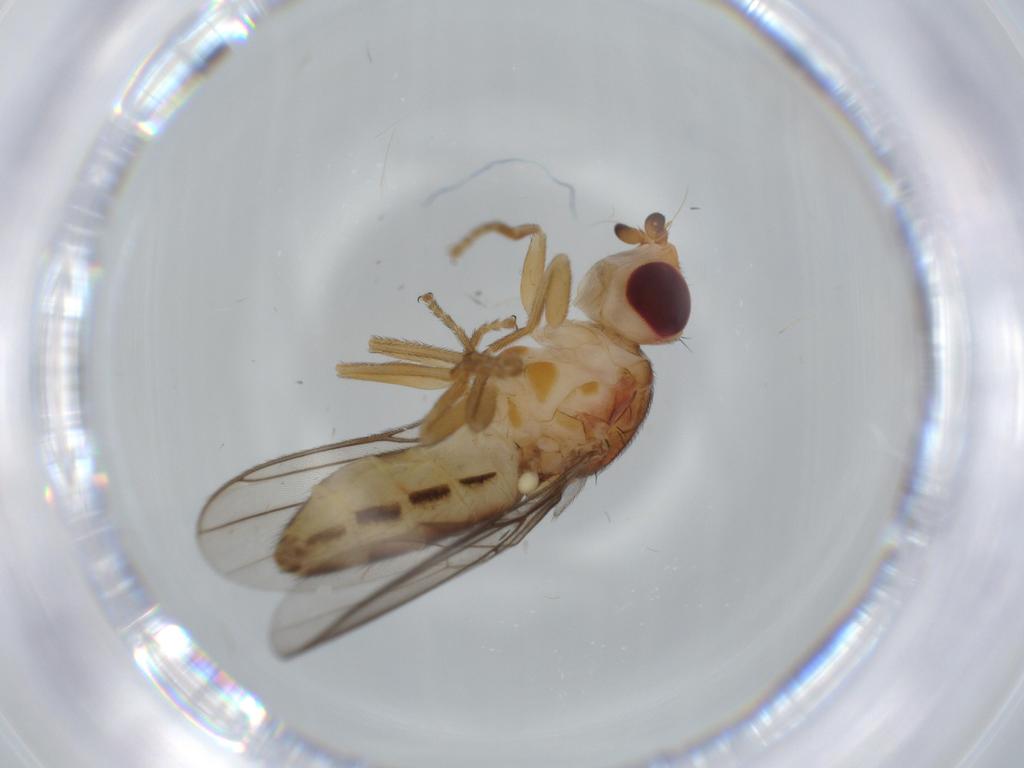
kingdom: Animalia
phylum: Arthropoda
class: Insecta
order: Diptera
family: Chloropidae
